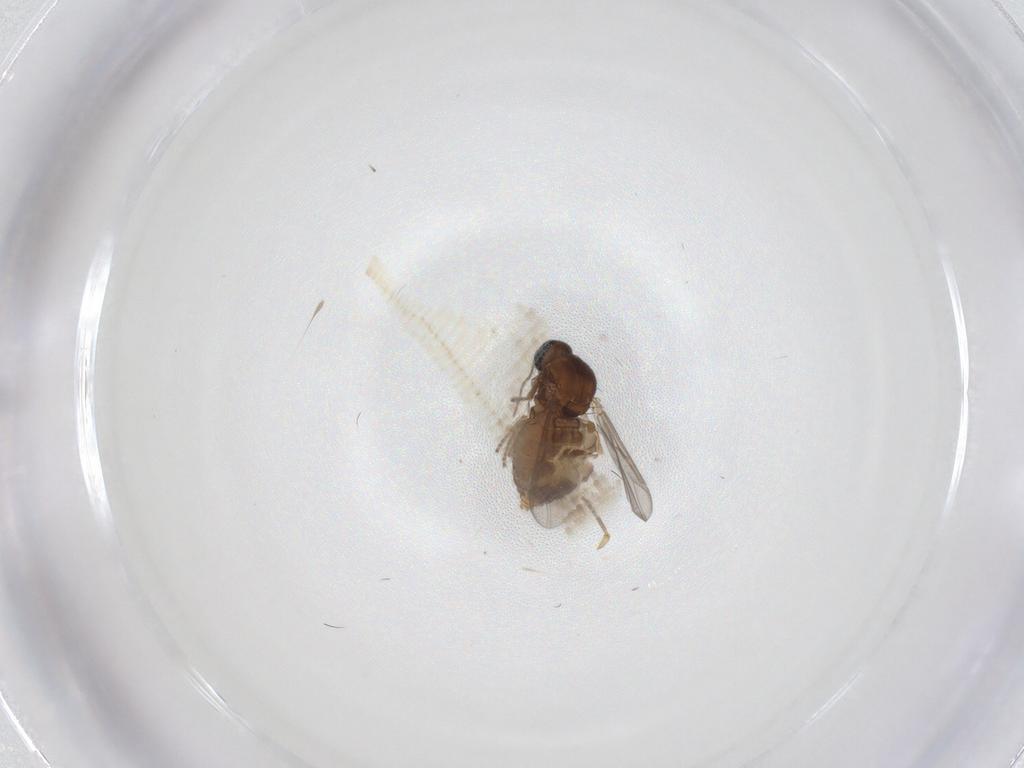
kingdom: Animalia
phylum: Arthropoda
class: Insecta
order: Diptera
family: Ceratopogonidae
